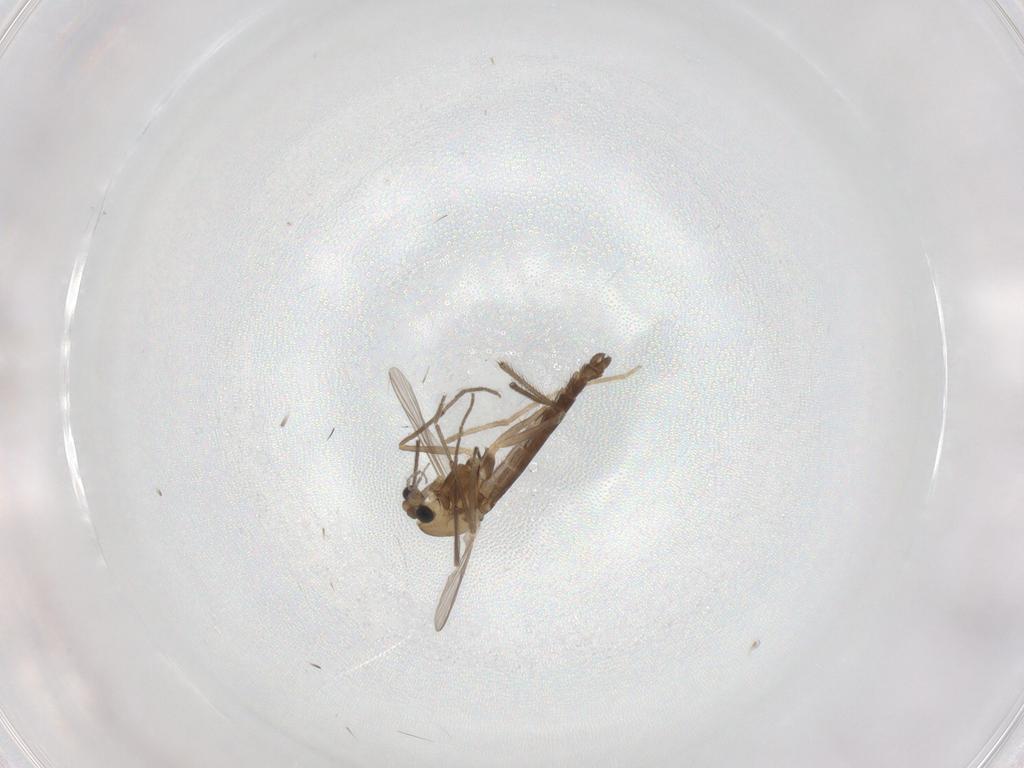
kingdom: Animalia
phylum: Arthropoda
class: Insecta
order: Diptera
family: Chironomidae
